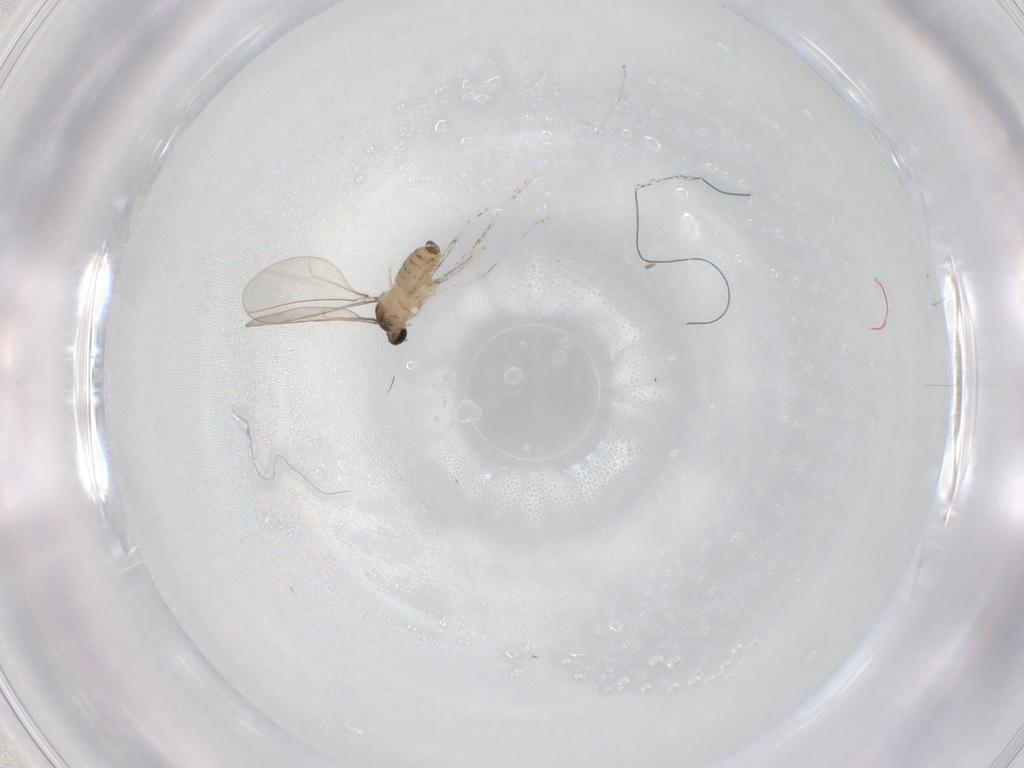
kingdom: Animalia
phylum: Arthropoda
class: Insecta
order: Diptera
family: Cecidomyiidae
